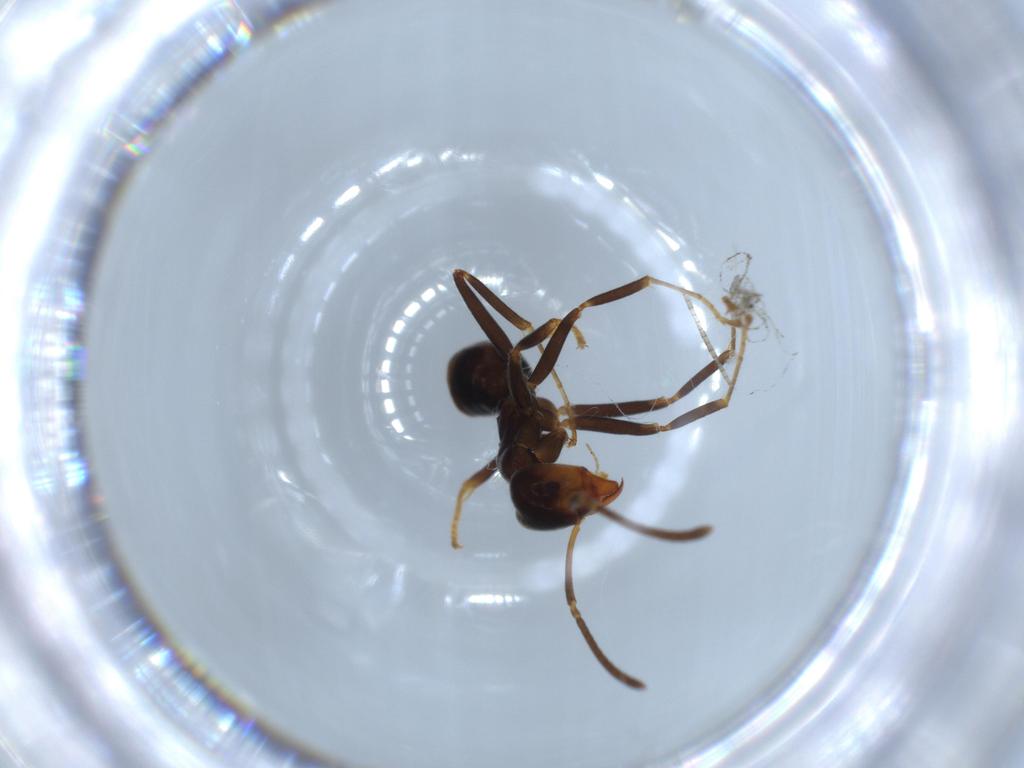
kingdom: Animalia
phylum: Arthropoda
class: Insecta
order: Hymenoptera
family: Formicidae
